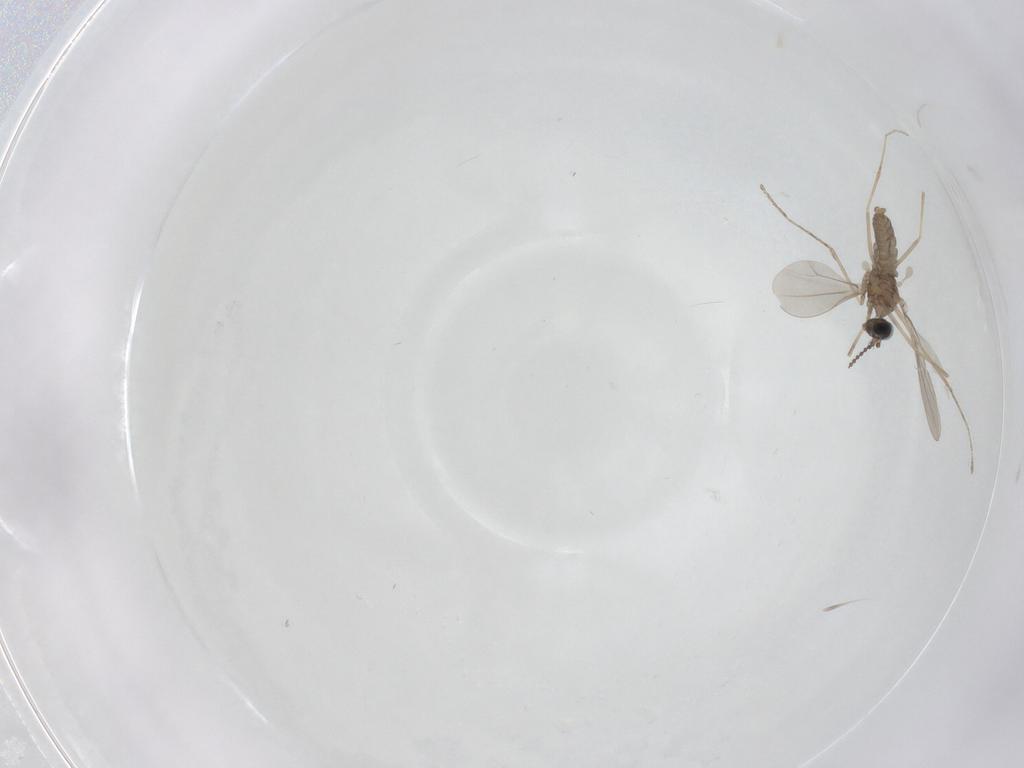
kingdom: Animalia
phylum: Arthropoda
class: Insecta
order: Diptera
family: Cecidomyiidae
